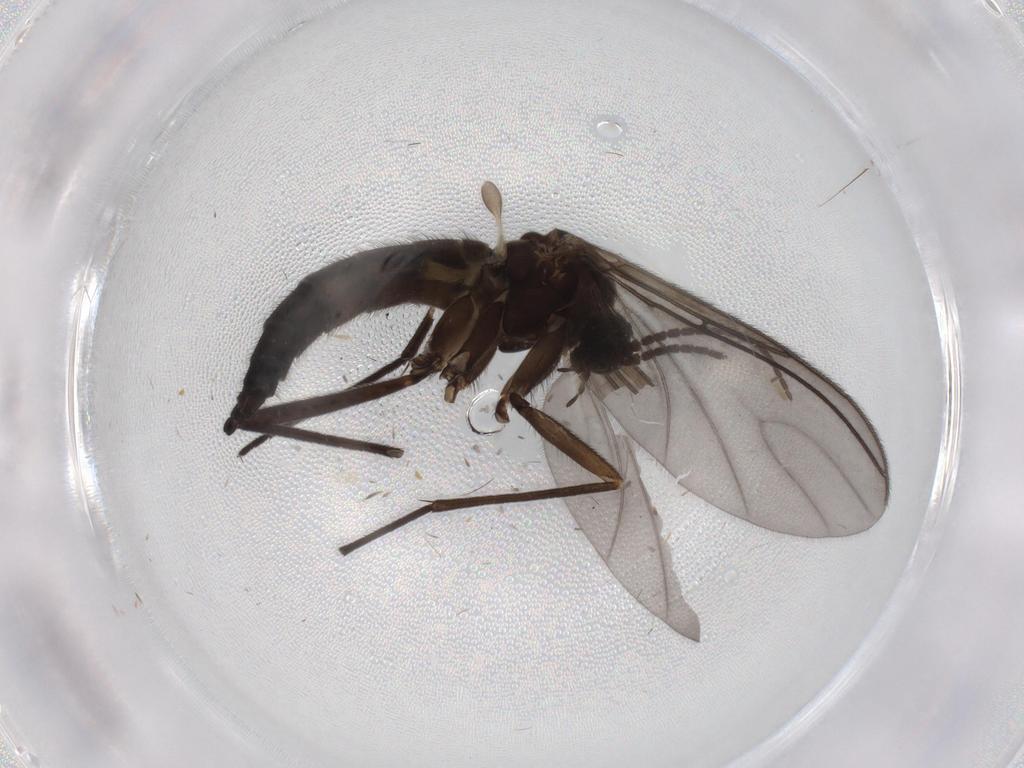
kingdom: Animalia
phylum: Arthropoda
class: Insecta
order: Diptera
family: Sciaridae
